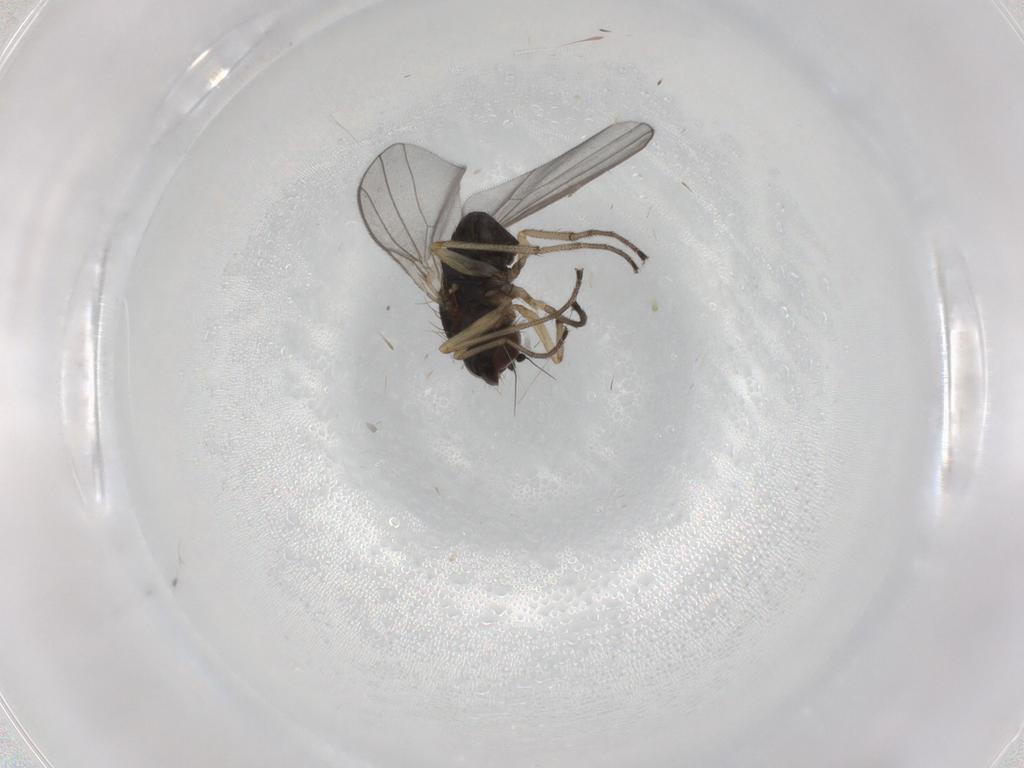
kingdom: Animalia
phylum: Arthropoda
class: Insecta
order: Diptera
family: Dolichopodidae
